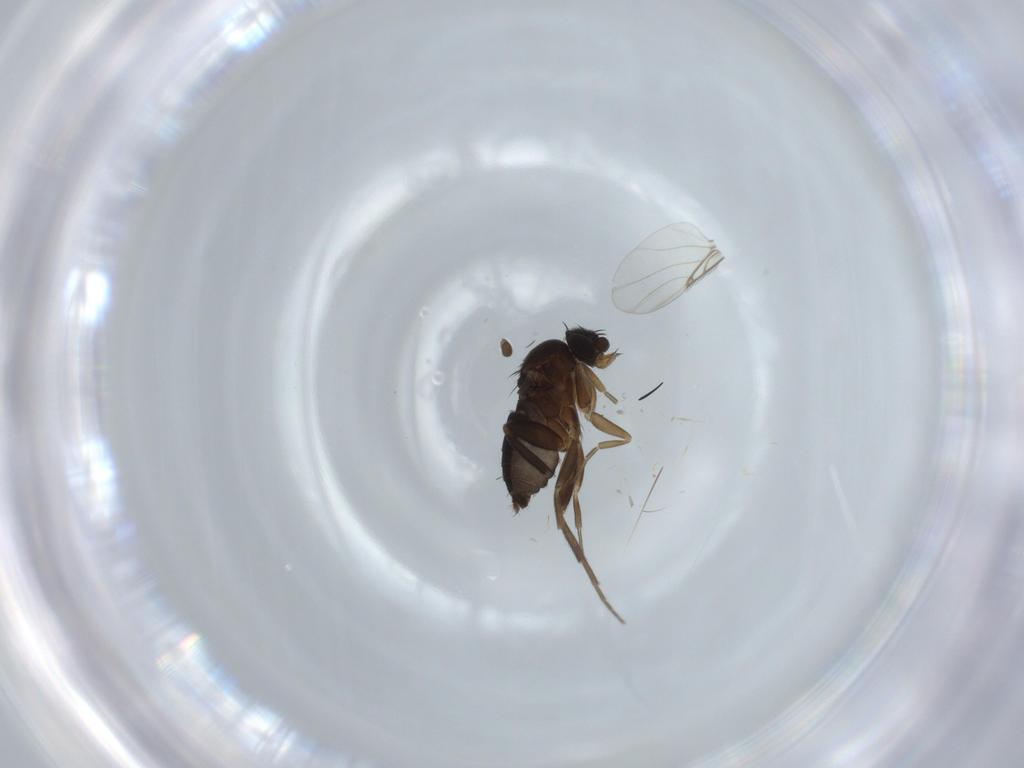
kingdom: Animalia
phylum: Arthropoda
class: Insecta
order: Diptera
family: Phoridae
